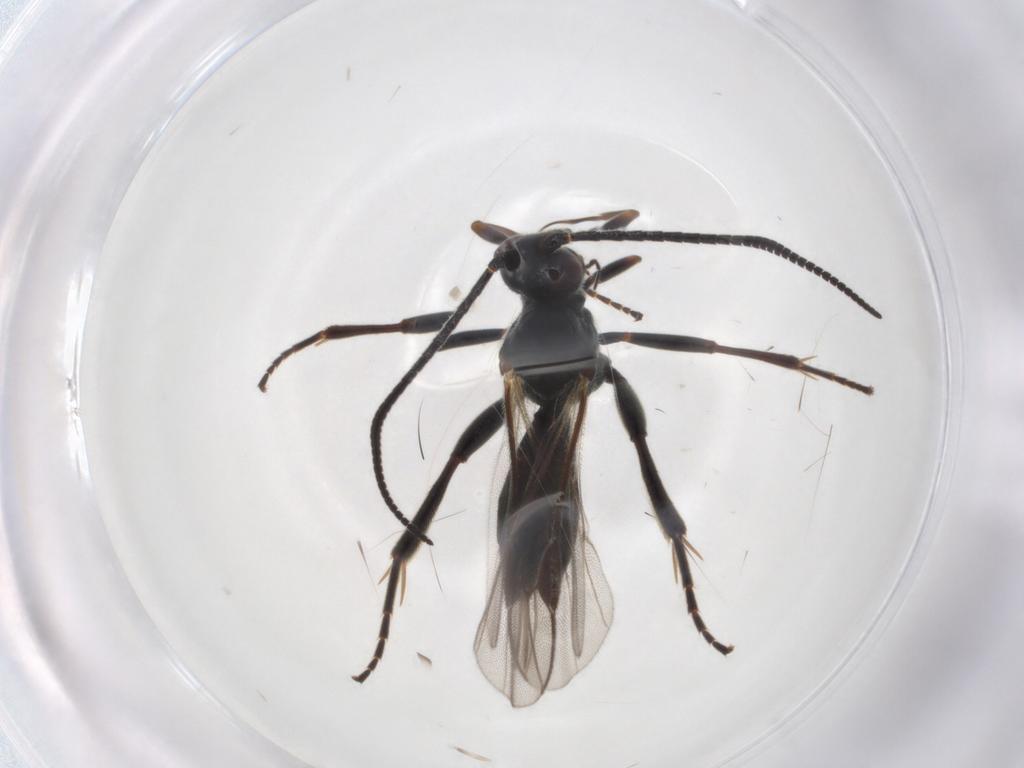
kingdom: Animalia
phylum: Arthropoda
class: Insecta
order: Hymenoptera
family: Braconidae
